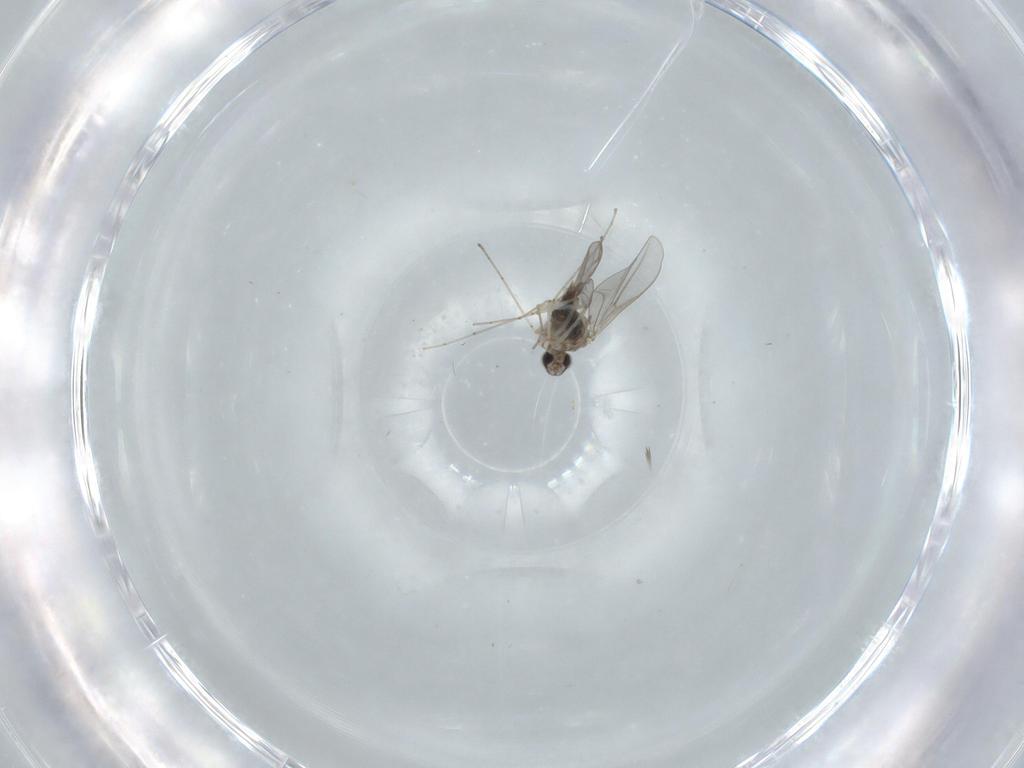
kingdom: Animalia
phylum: Arthropoda
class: Insecta
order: Diptera
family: Cecidomyiidae
